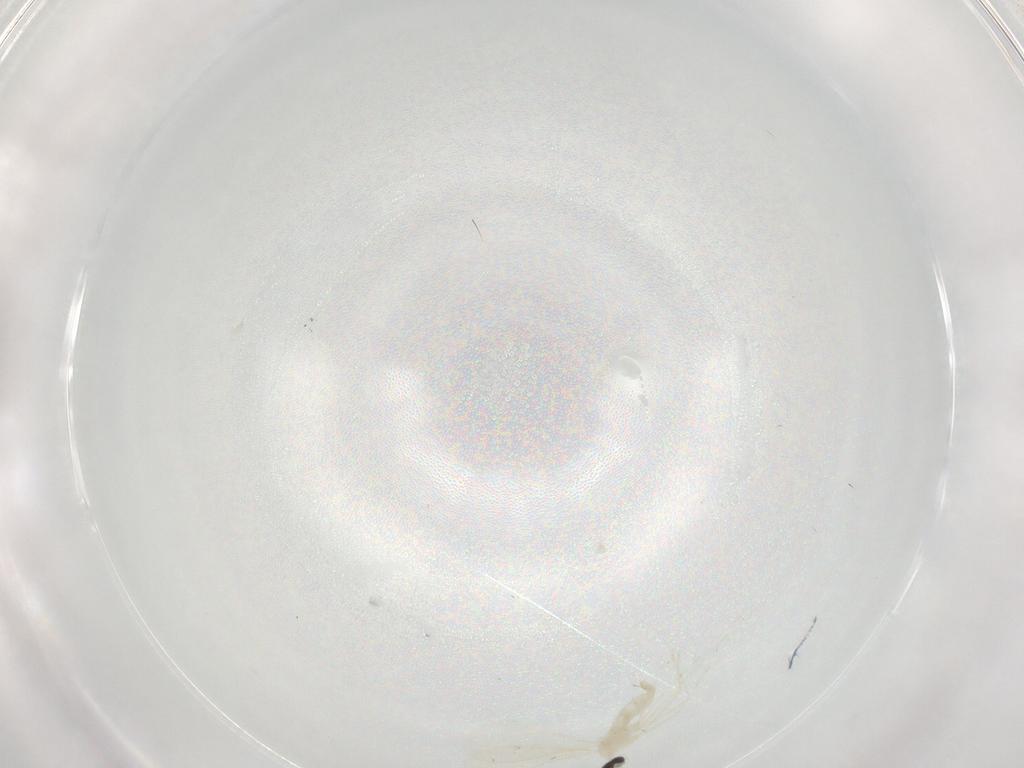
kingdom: Animalia
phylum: Arthropoda
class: Insecta
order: Diptera
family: Cecidomyiidae
